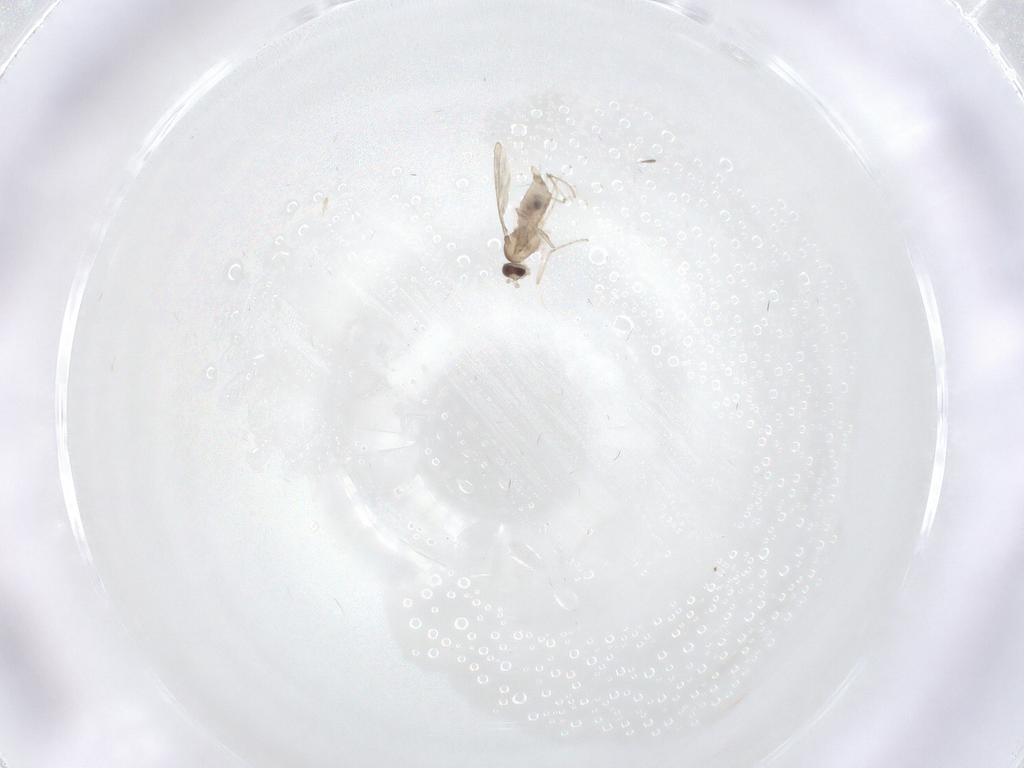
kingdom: Animalia
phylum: Arthropoda
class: Insecta
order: Diptera
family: Cecidomyiidae
